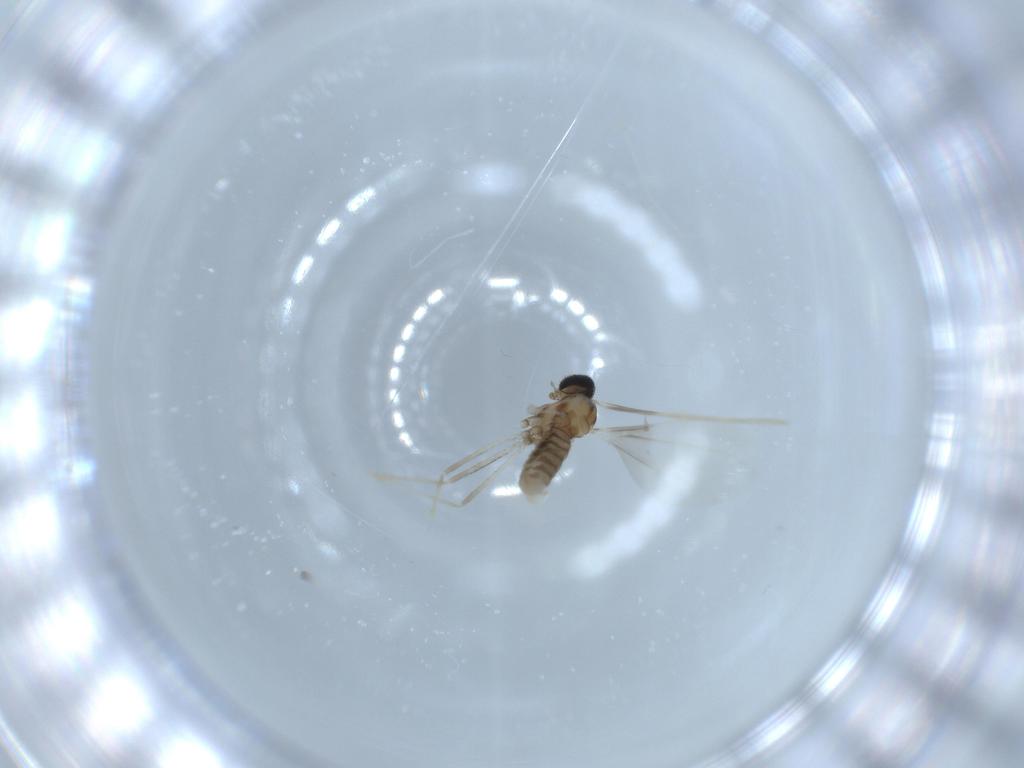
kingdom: Animalia
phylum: Arthropoda
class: Insecta
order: Diptera
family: Cecidomyiidae
